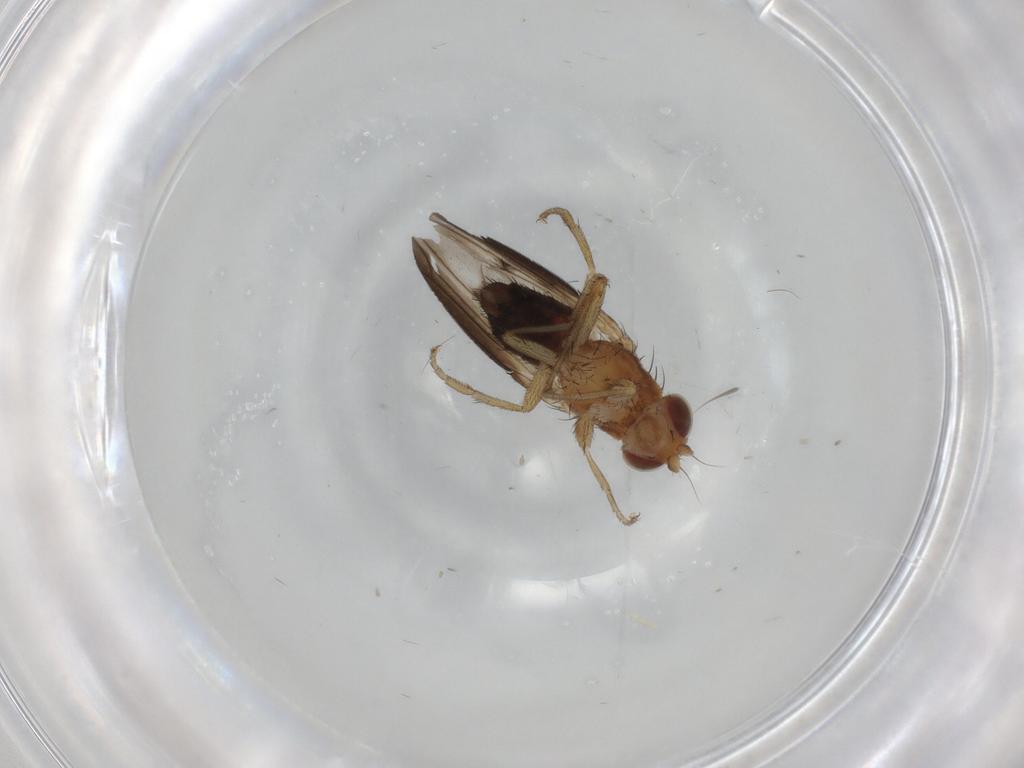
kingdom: Animalia
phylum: Arthropoda
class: Insecta
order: Diptera
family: Heleomyzidae
